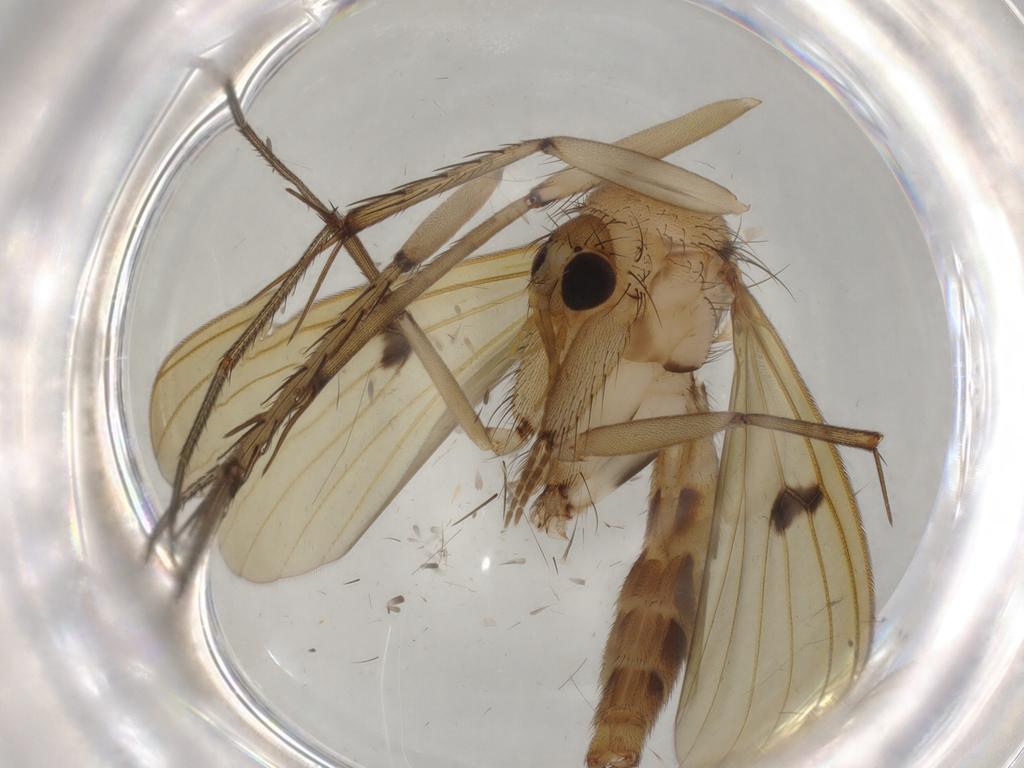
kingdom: Animalia
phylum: Arthropoda
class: Insecta
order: Diptera
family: Mycetophilidae
